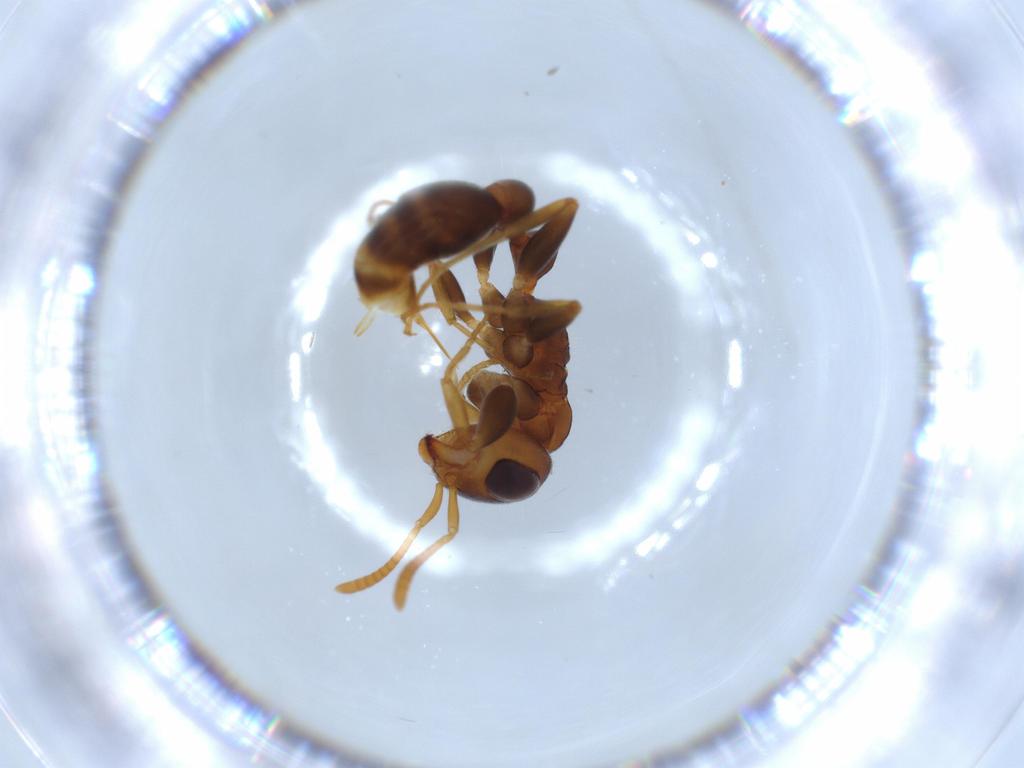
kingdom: Animalia
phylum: Arthropoda
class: Insecta
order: Hymenoptera
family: Formicidae
